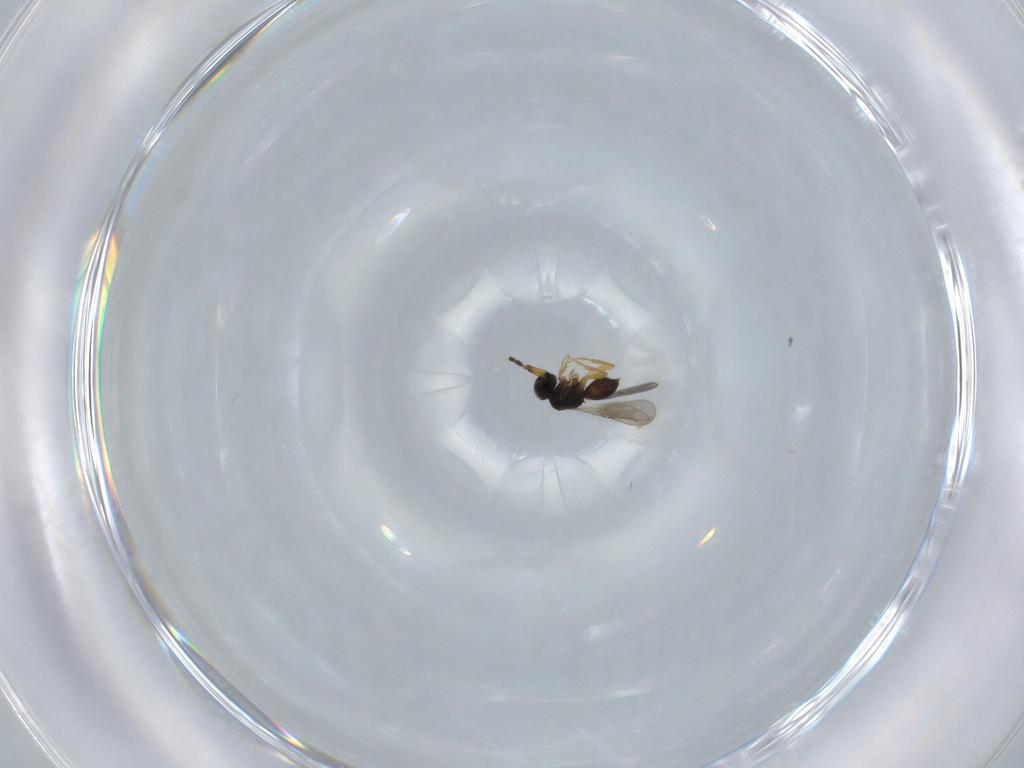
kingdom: Animalia
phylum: Arthropoda
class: Insecta
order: Hymenoptera
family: Ceraphronidae
